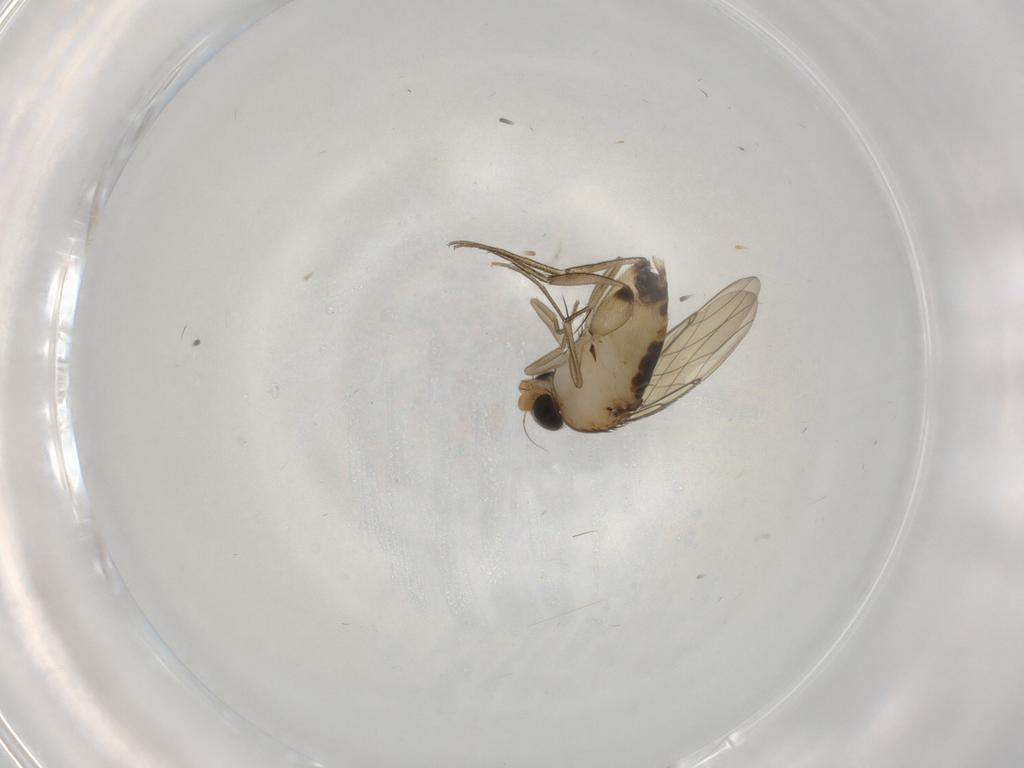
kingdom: Animalia
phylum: Arthropoda
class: Insecta
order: Diptera
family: Phoridae
